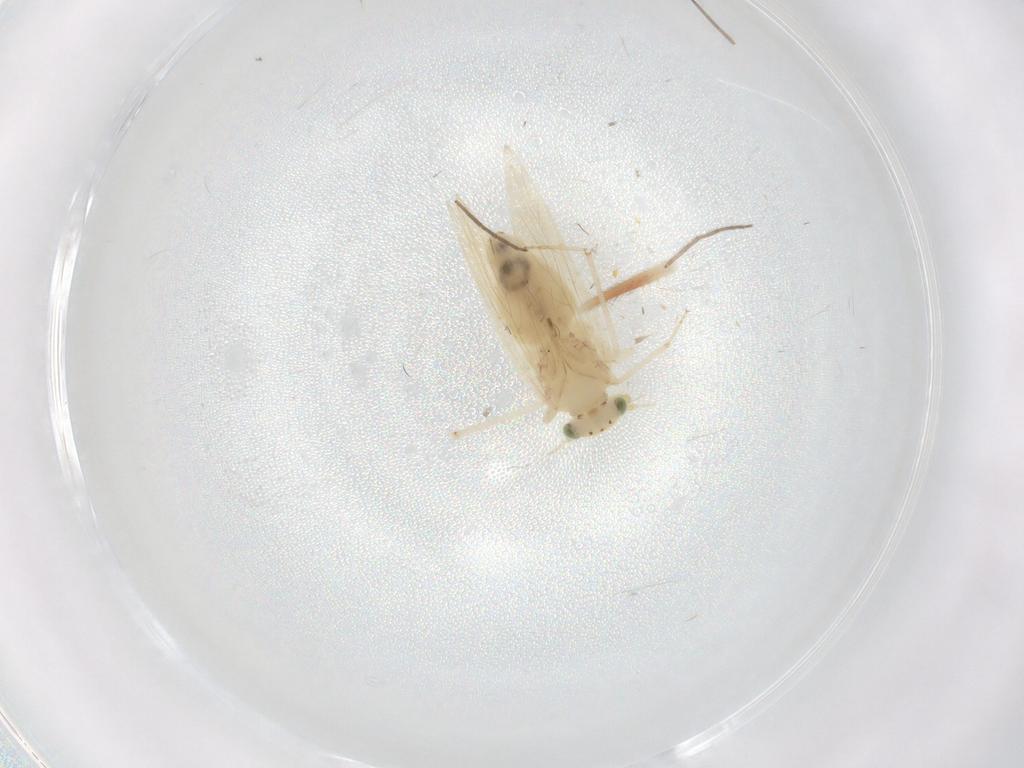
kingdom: Animalia
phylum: Arthropoda
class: Insecta
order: Psocodea
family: Lepidopsocidae
